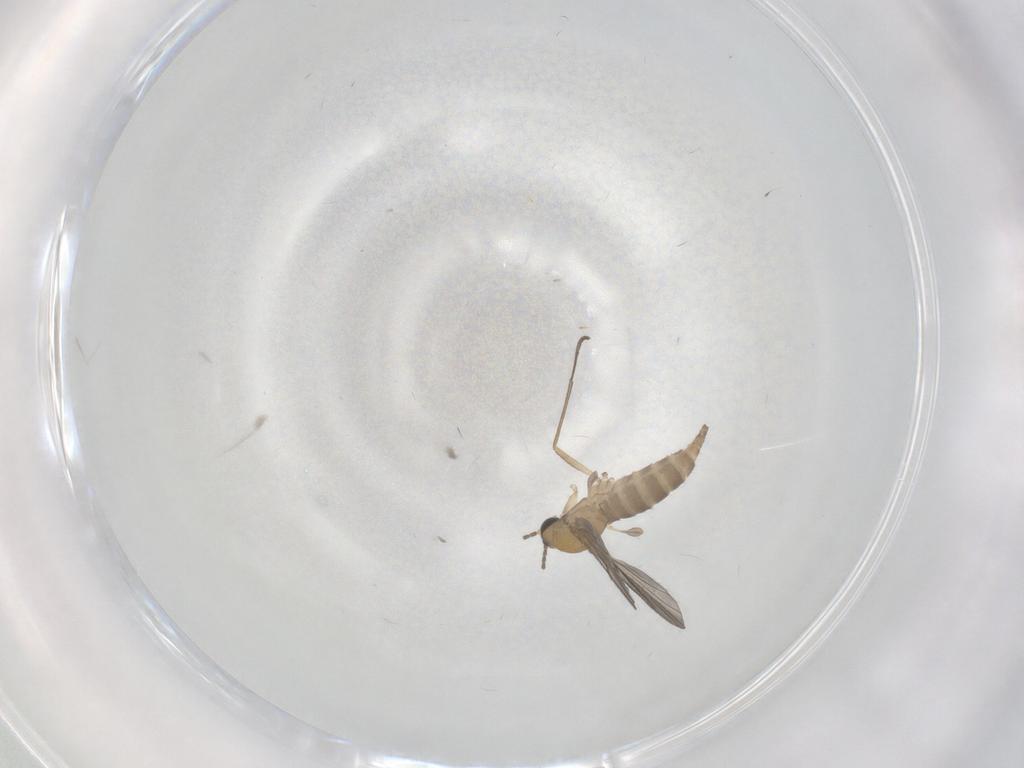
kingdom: Animalia
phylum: Arthropoda
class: Insecta
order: Diptera
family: Sciaridae
